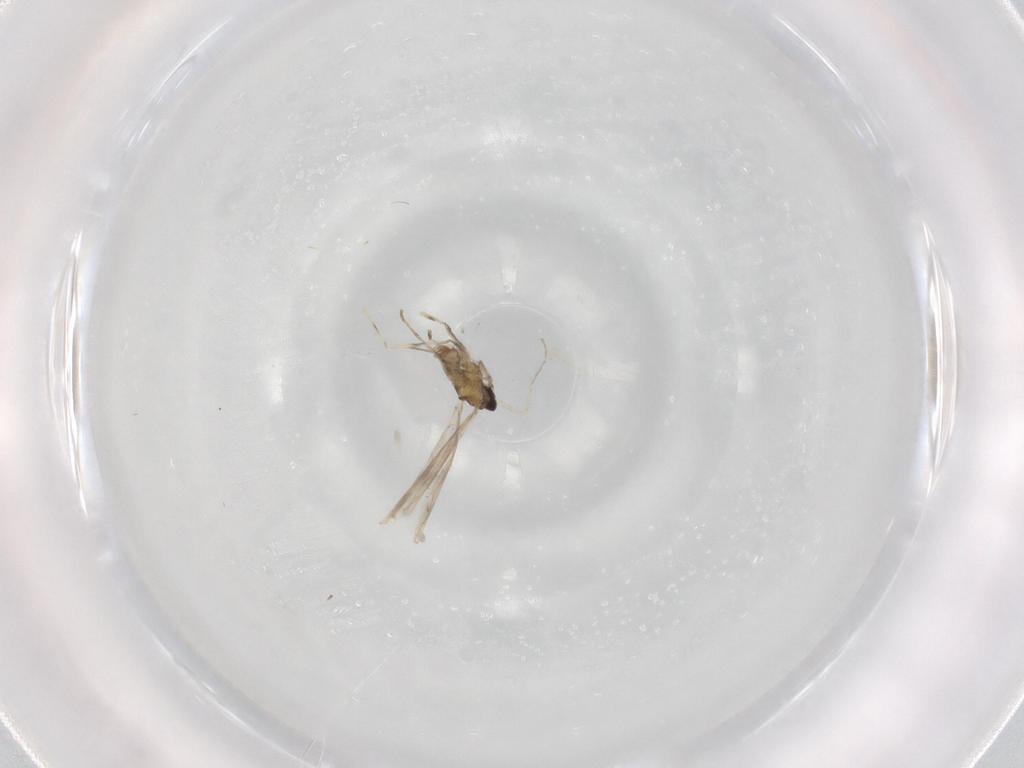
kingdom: Animalia
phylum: Arthropoda
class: Insecta
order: Diptera
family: Cecidomyiidae
